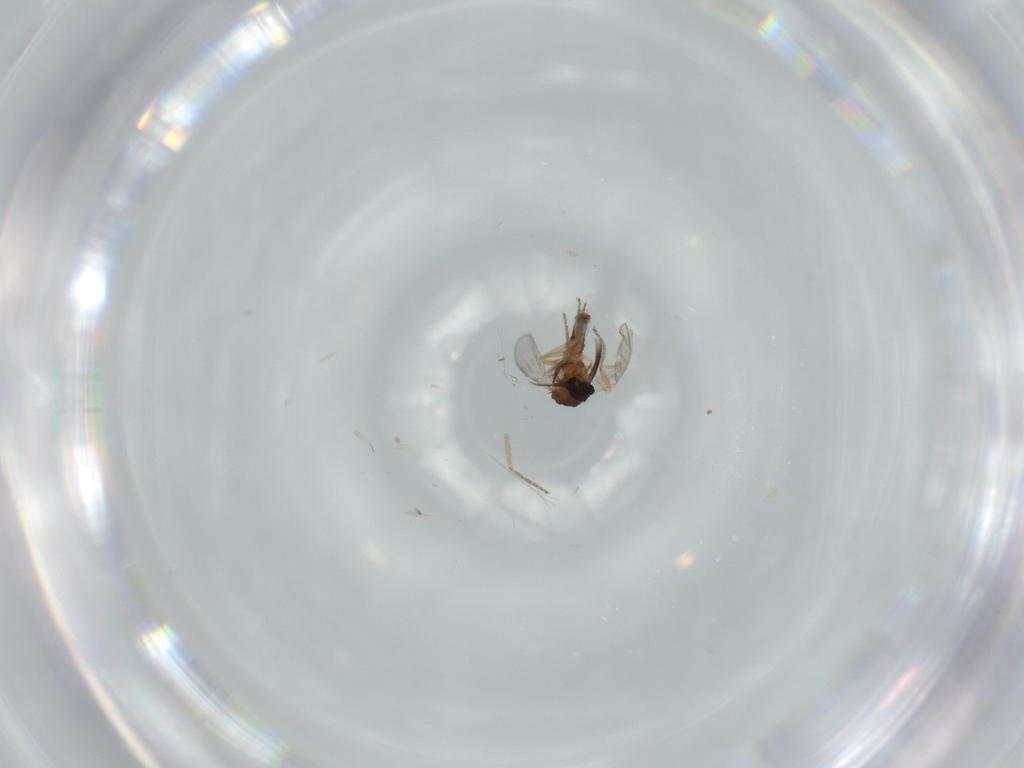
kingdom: Animalia
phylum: Arthropoda
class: Insecta
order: Diptera
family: Ceratopogonidae
